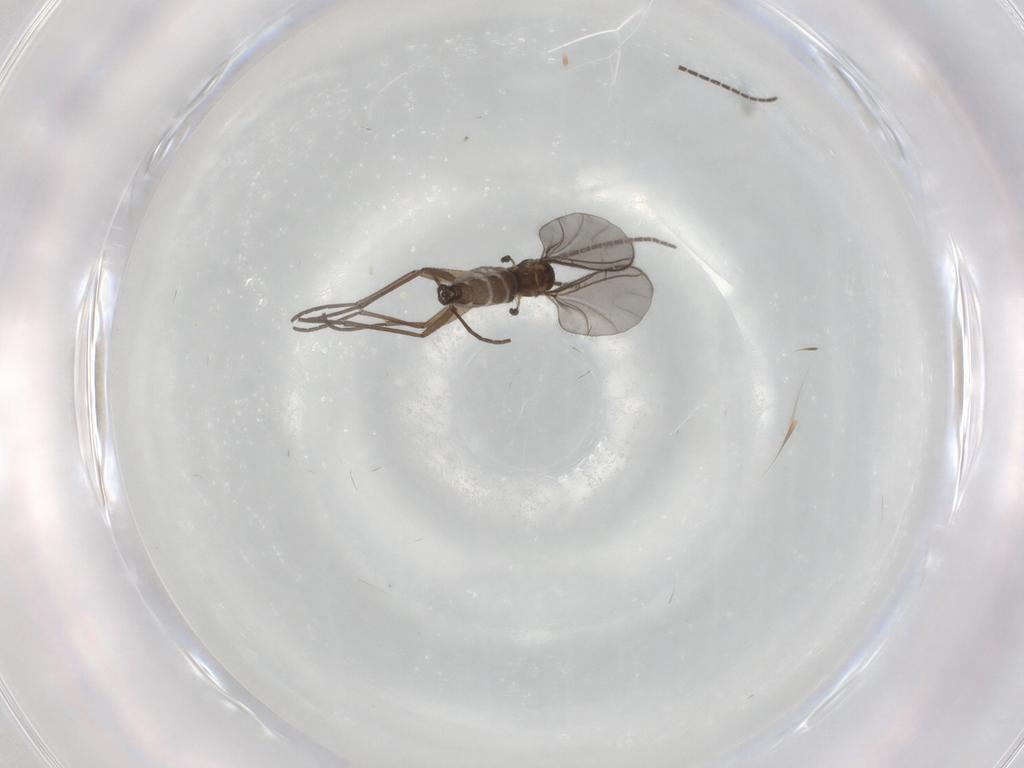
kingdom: Animalia
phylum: Arthropoda
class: Insecta
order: Diptera
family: Sciaridae
